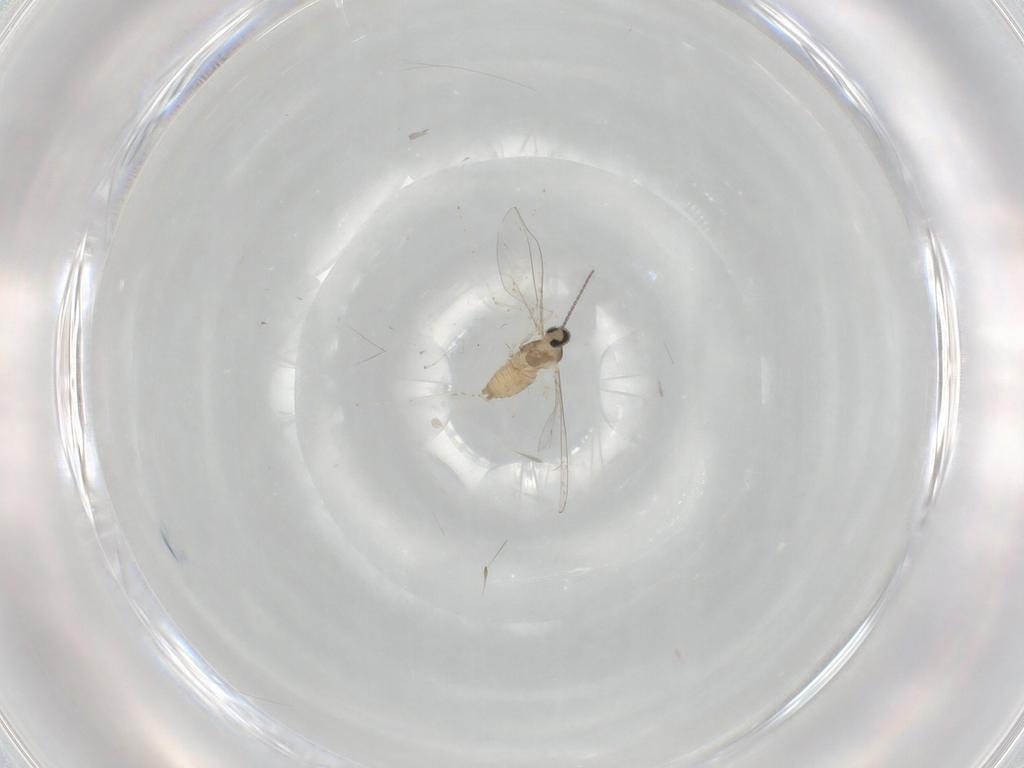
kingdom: Animalia
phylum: Arthropoda
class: Insecta
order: Diptera
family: Cecidomyiidae
